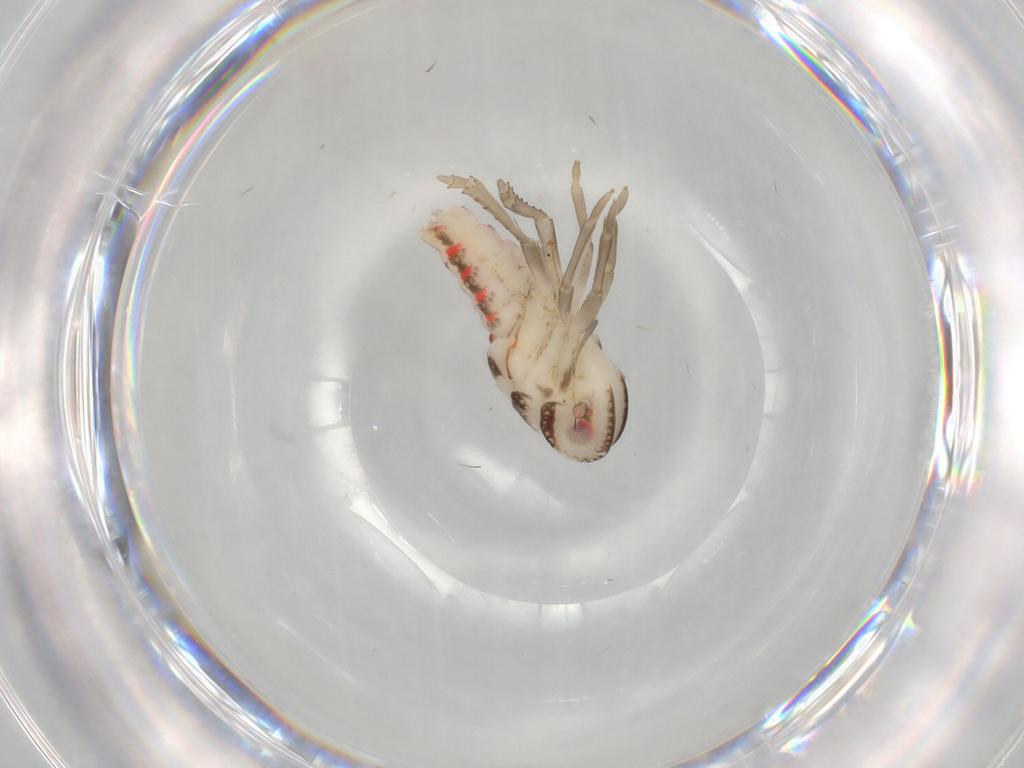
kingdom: Animalia
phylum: Arthropoda
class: Insecta
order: Hemiptera
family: Nogodinidae
